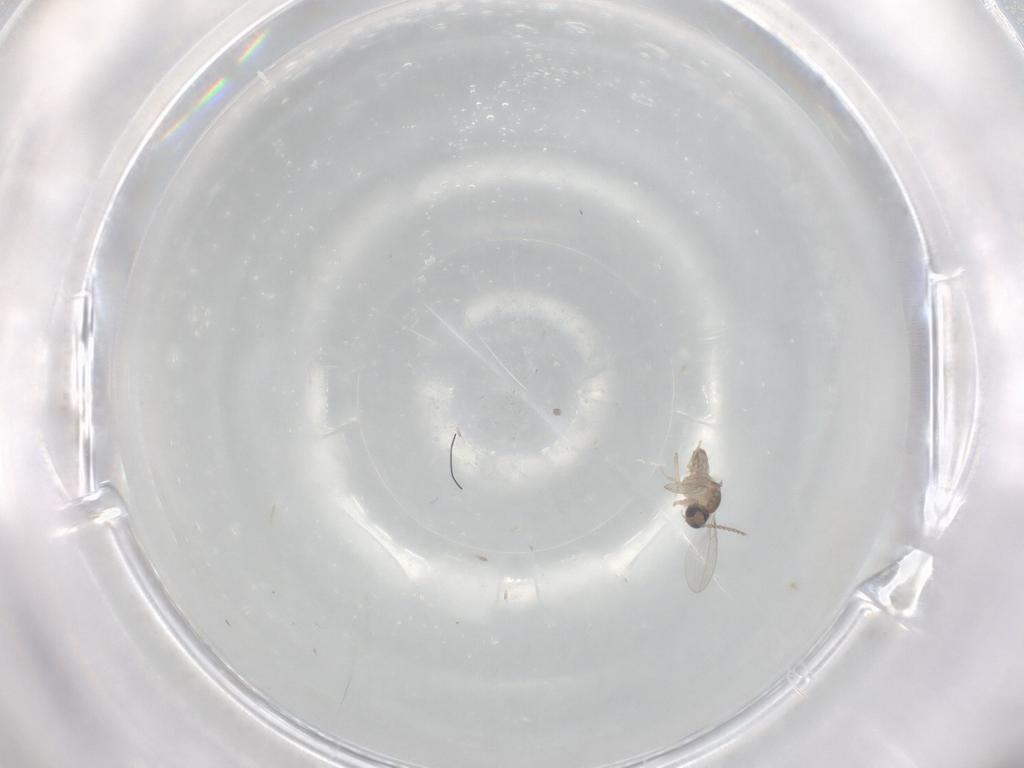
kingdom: Animalia
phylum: Arthropoda
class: Insecta
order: Diptera
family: Cecidomyiidae
